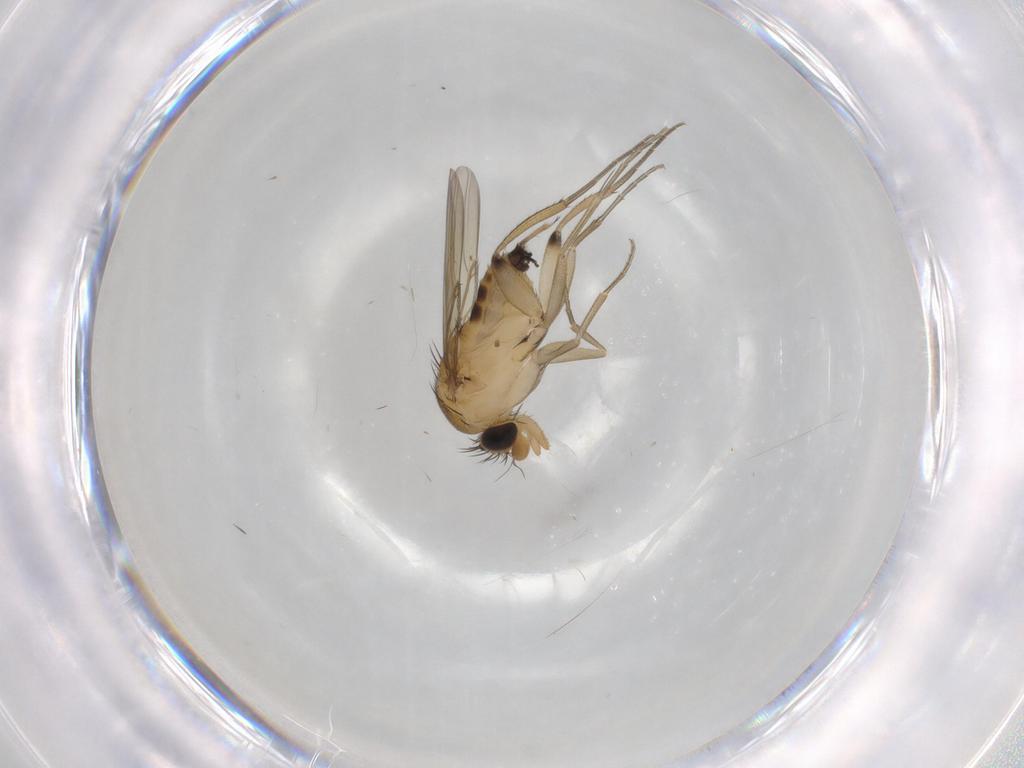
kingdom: Animalia
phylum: Arthropoda
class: Insecta
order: Diptera
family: Phoridae
